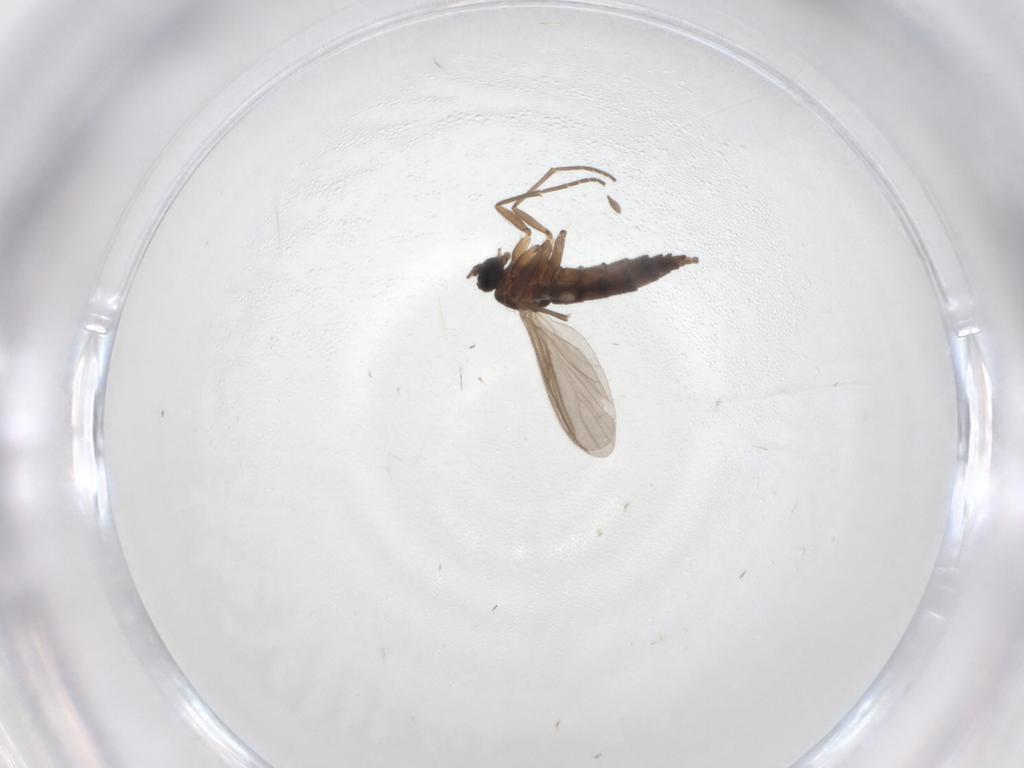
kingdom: Animalia
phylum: Arthropoda
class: Insecta
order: Diptera
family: Sciaridae
